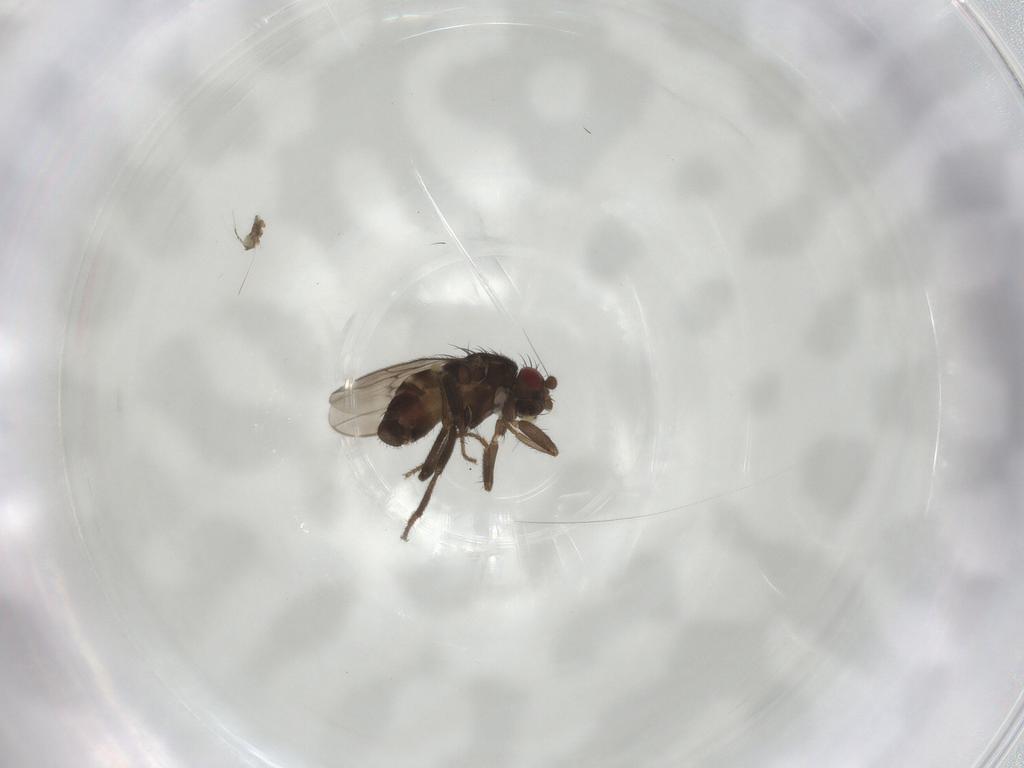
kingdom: Animalia
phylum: Arthropoda
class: Insecta
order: Diptera
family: Sphaeroceridae
